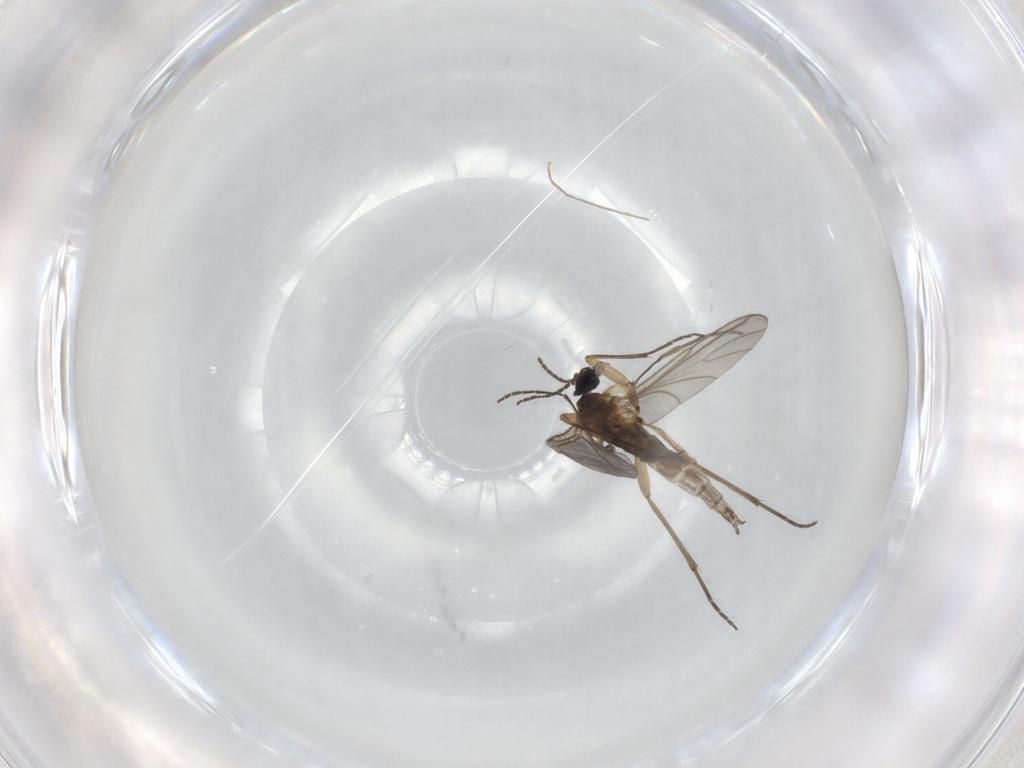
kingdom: Animalia
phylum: Arthropoda
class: Insecta
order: Diptera
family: Sciaridae
